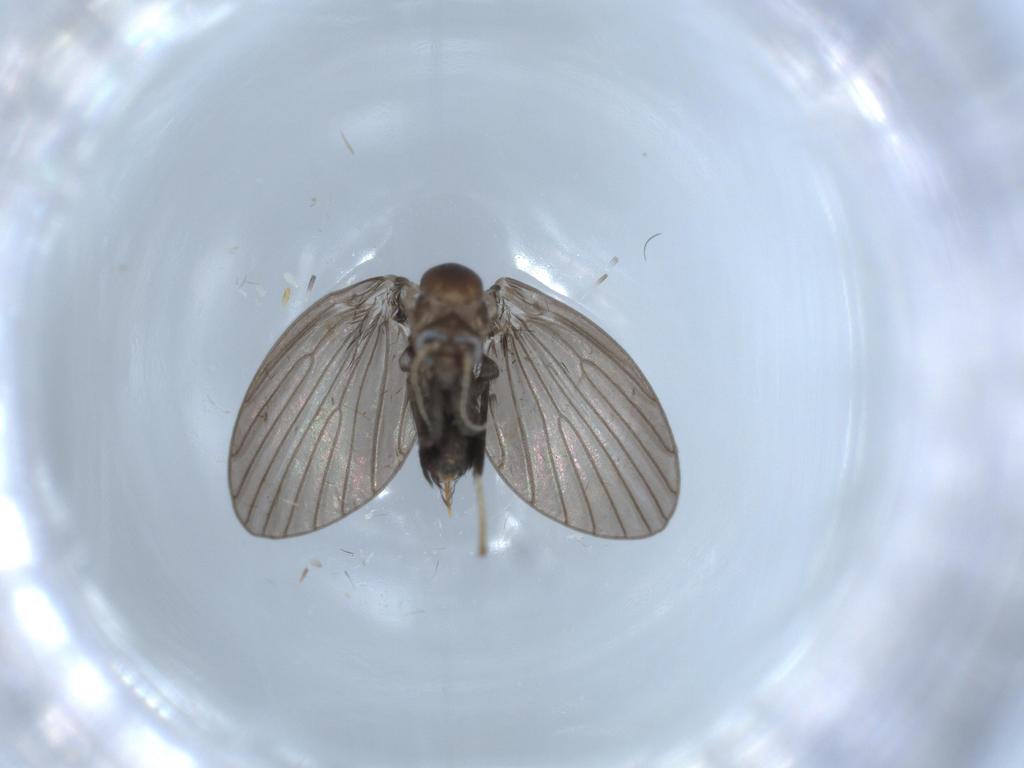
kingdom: Animalia
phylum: Arthropoda
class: Insecta
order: Diptera
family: Psychodidae
